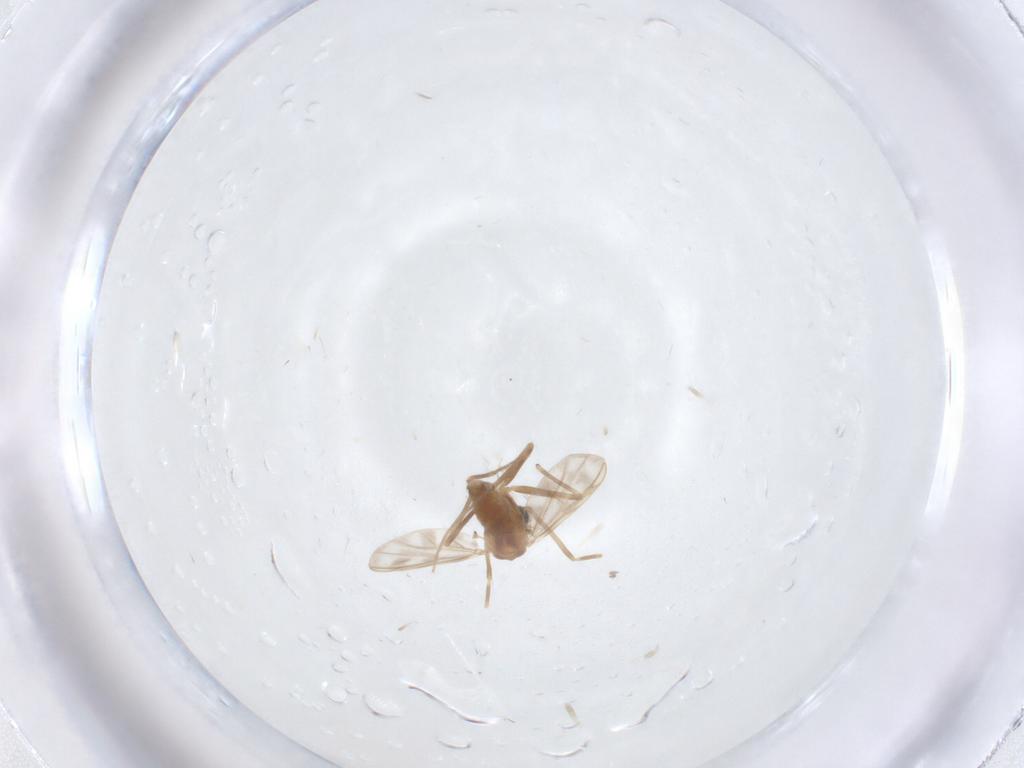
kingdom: Animalia
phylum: Arthropoda
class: Insecta
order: Diptera
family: Chironomidae
